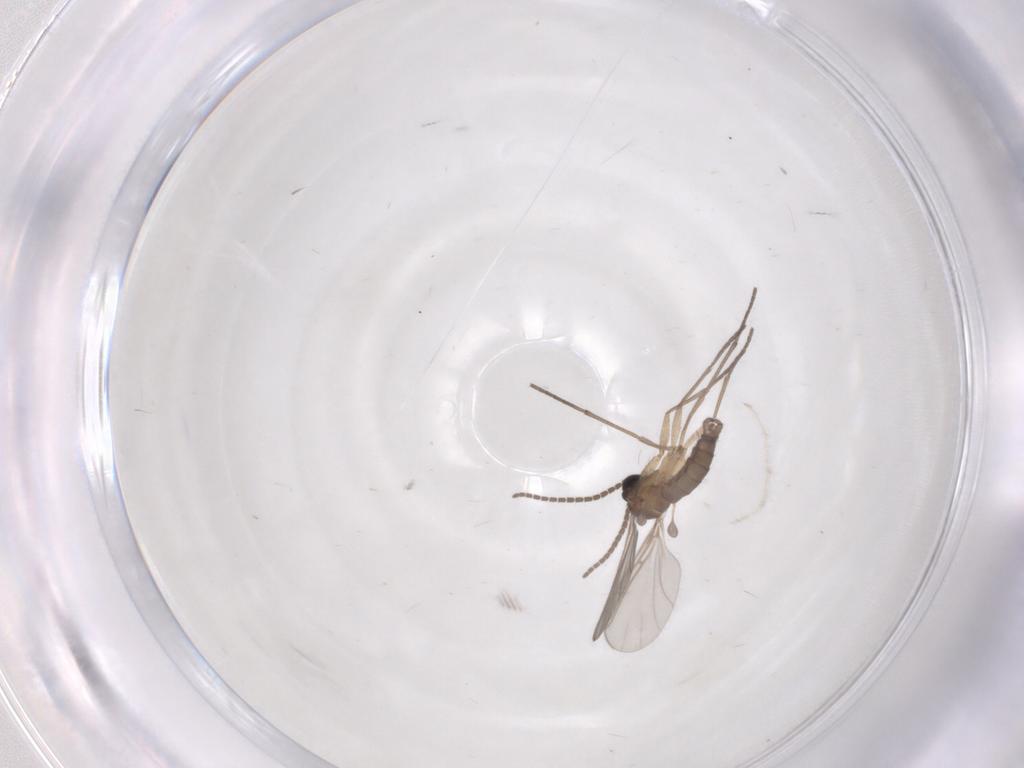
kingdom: Animalia
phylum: Arthropoda
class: Insecta
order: Diptera
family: Sciaridae
